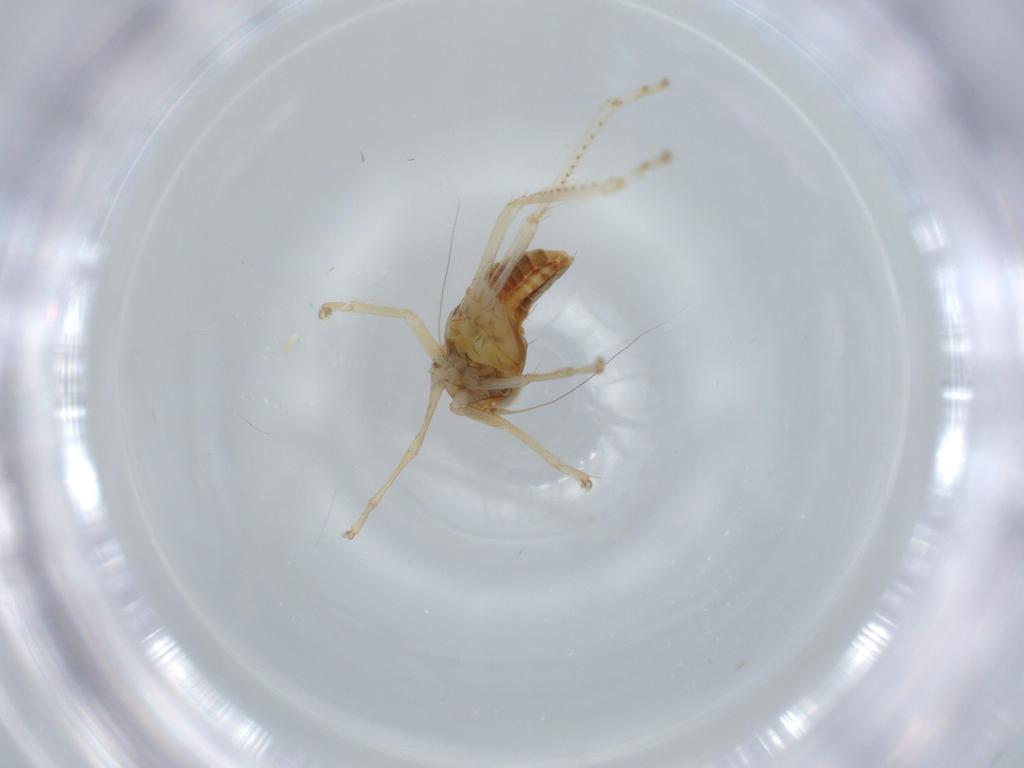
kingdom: Animalia
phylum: Arthropoda
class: Insecta
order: Hemiptera
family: Cicadellidae
